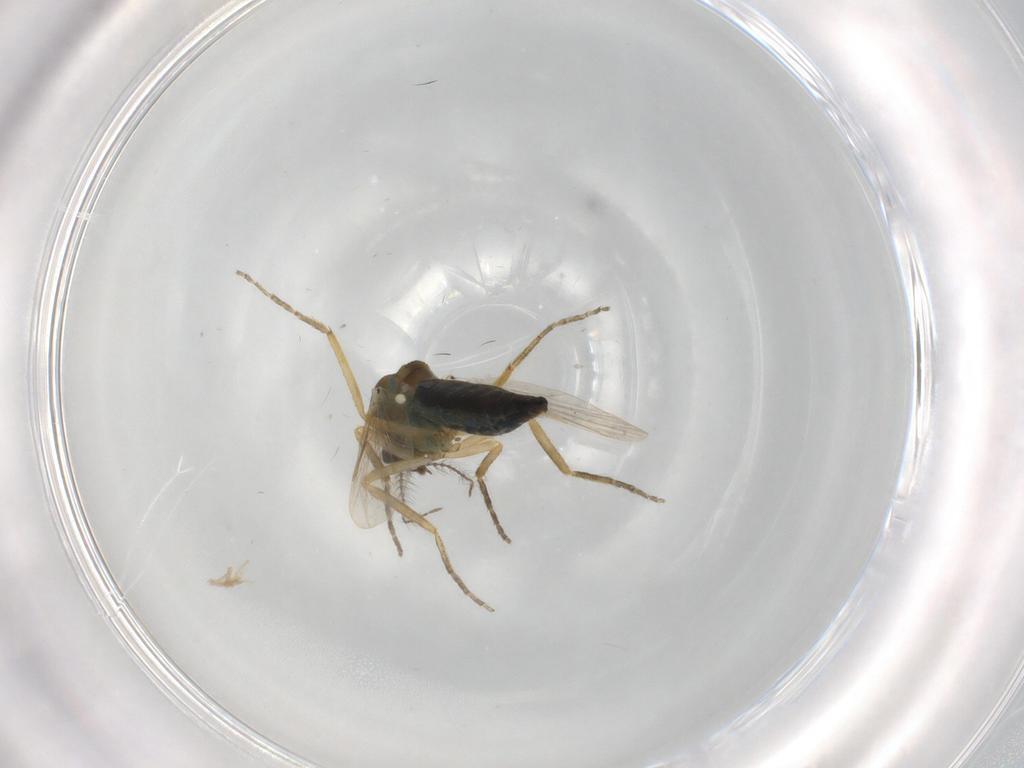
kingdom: Animalia
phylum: Arthropoda
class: Insecta
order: Diptera
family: Ceratopogonidae
